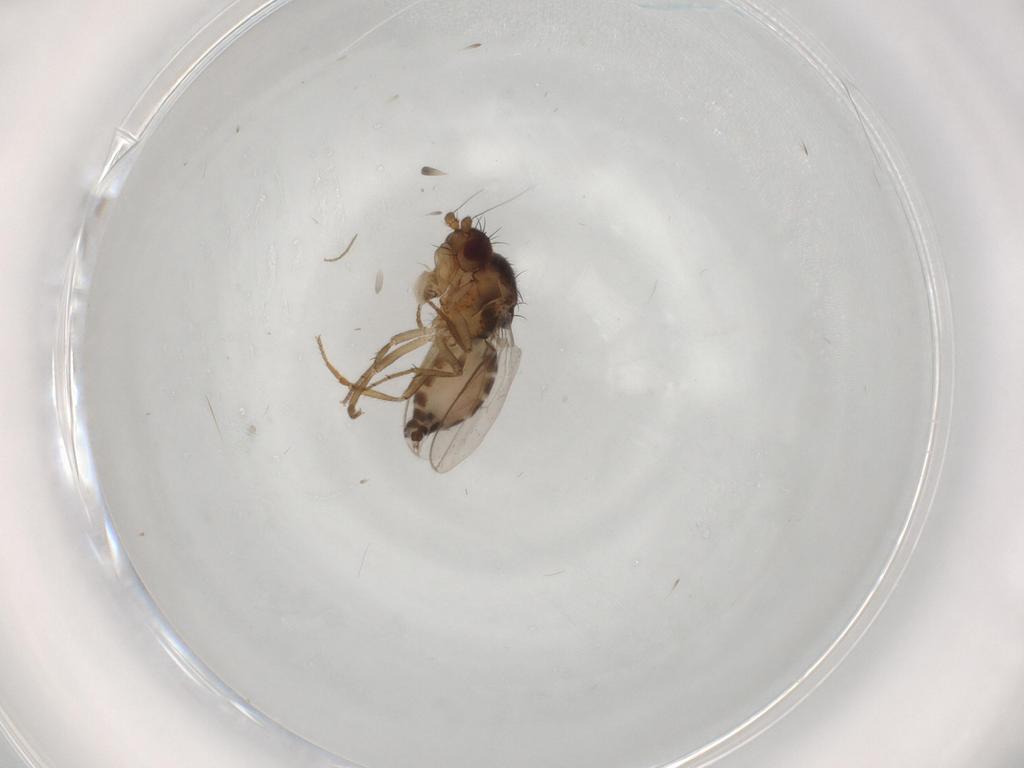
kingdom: Animalia
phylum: Arthropoda
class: Insecta
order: Diptera
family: Sphaeroceridae
